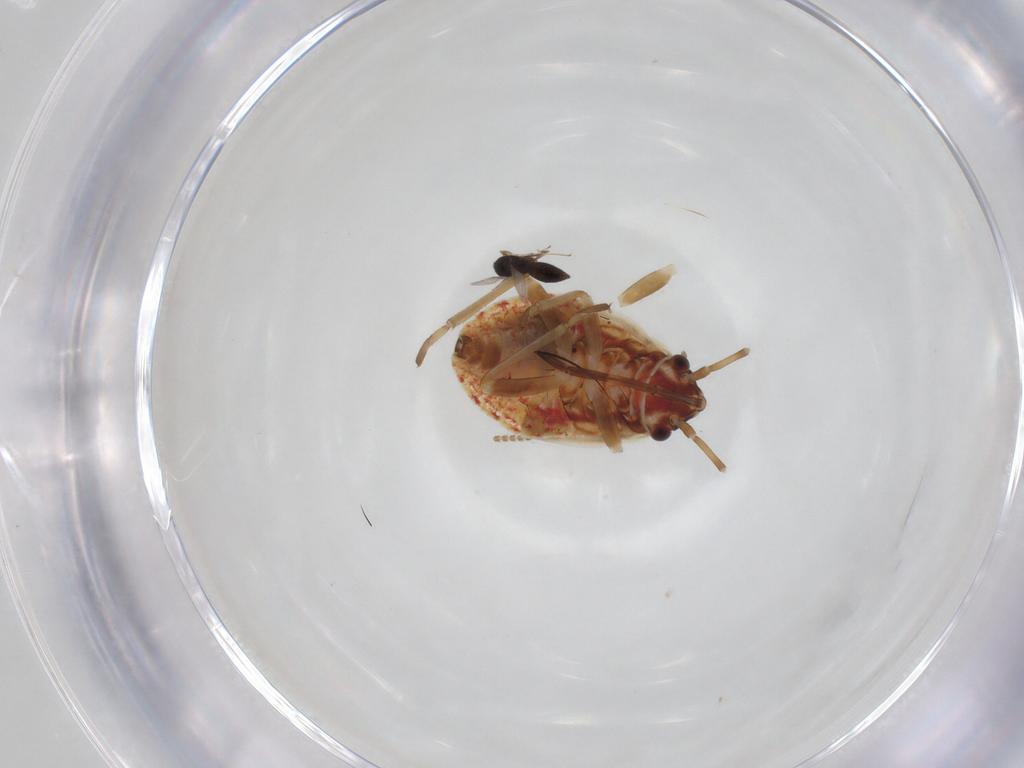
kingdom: Animalia
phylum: Arthropoda
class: Insecta
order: Hymenoptera
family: Scelionidae
